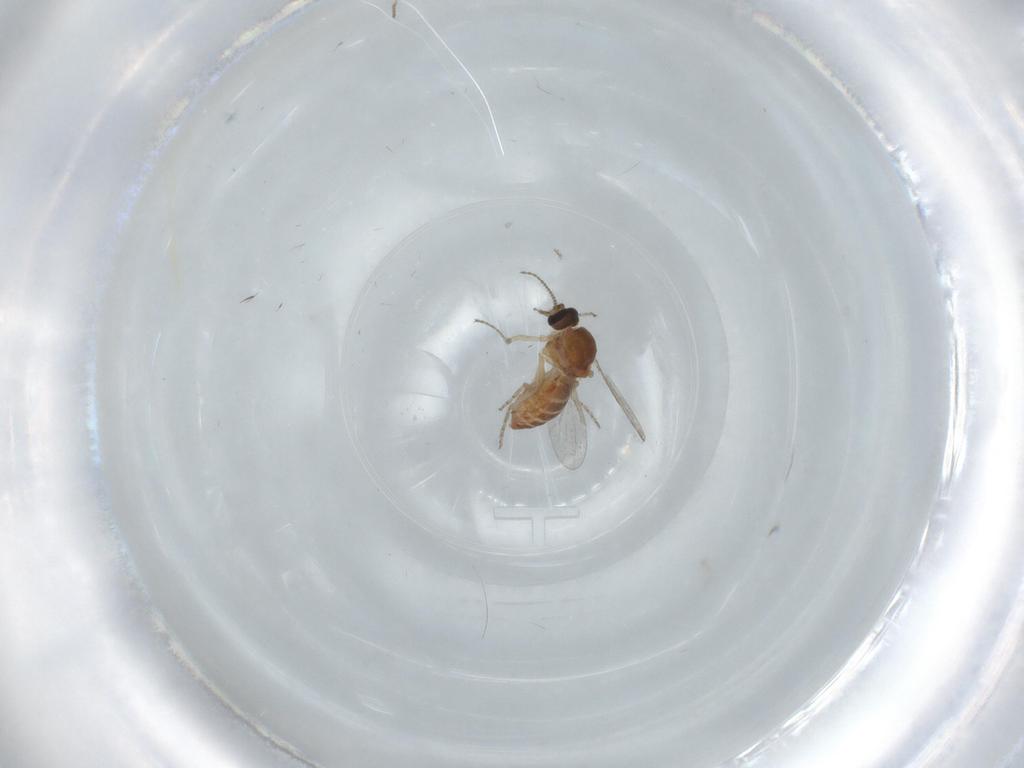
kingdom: Animalia
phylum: Arthropoda
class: Insecta
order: Diptera
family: Ceratopogonidae
